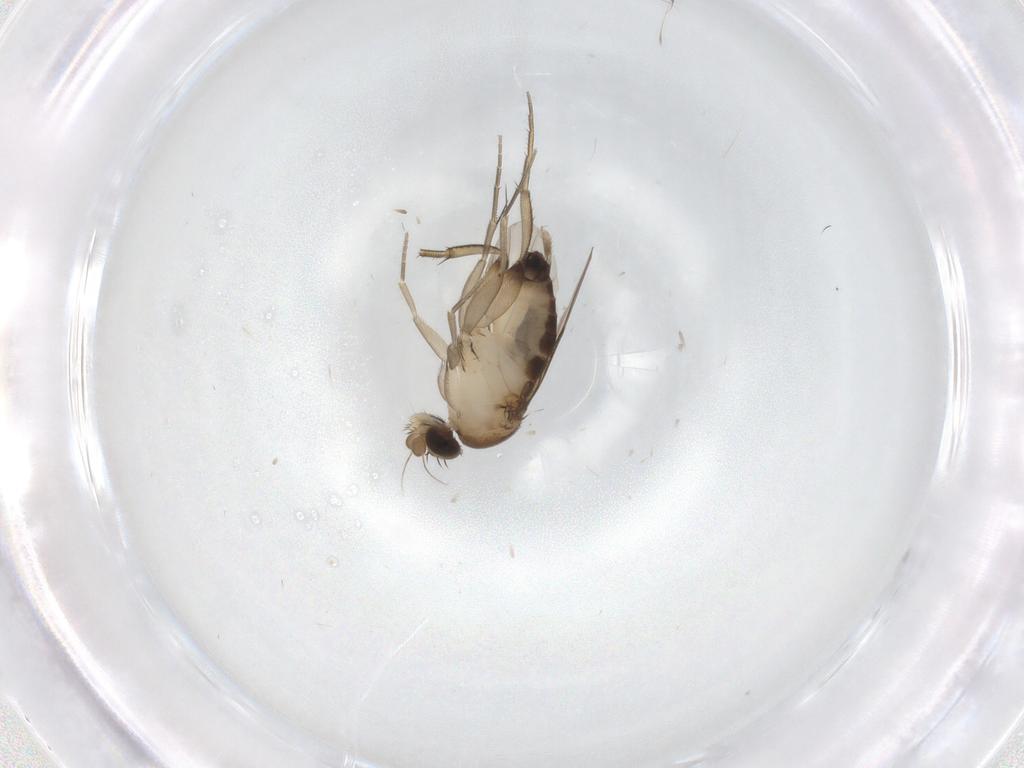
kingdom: Animalia
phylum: Arthropoda
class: Insecta
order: Diptera
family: Phoridae
